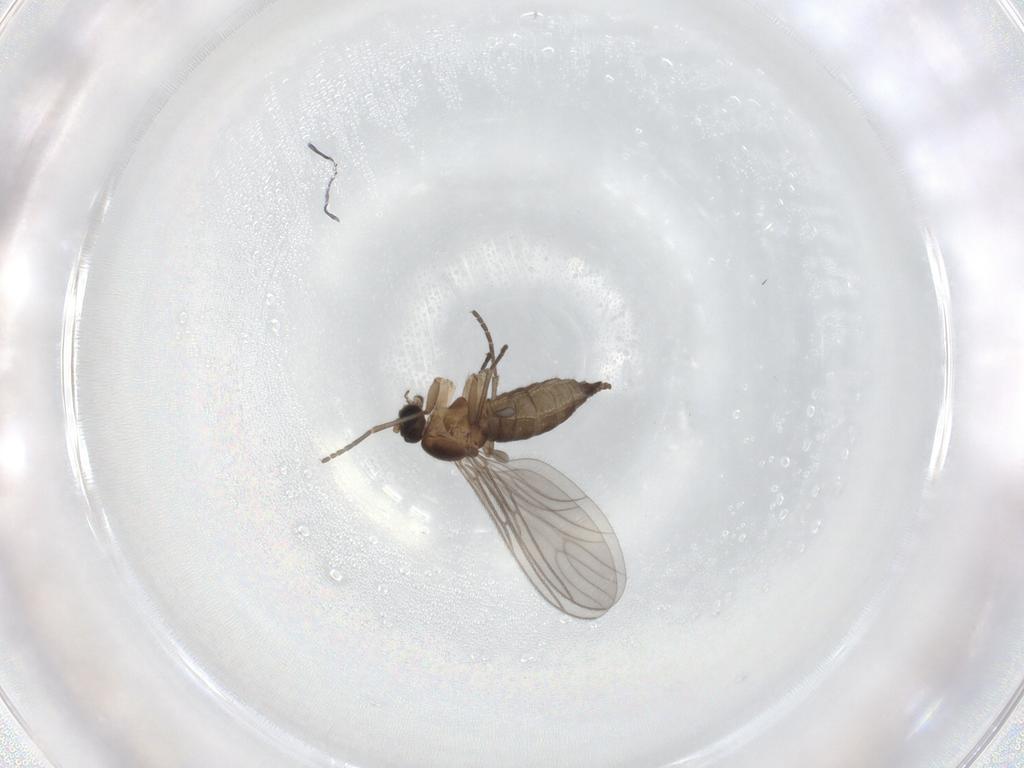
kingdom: Animalia
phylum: Arthropoda
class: Insecta
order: Diptera
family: Sciaridae
